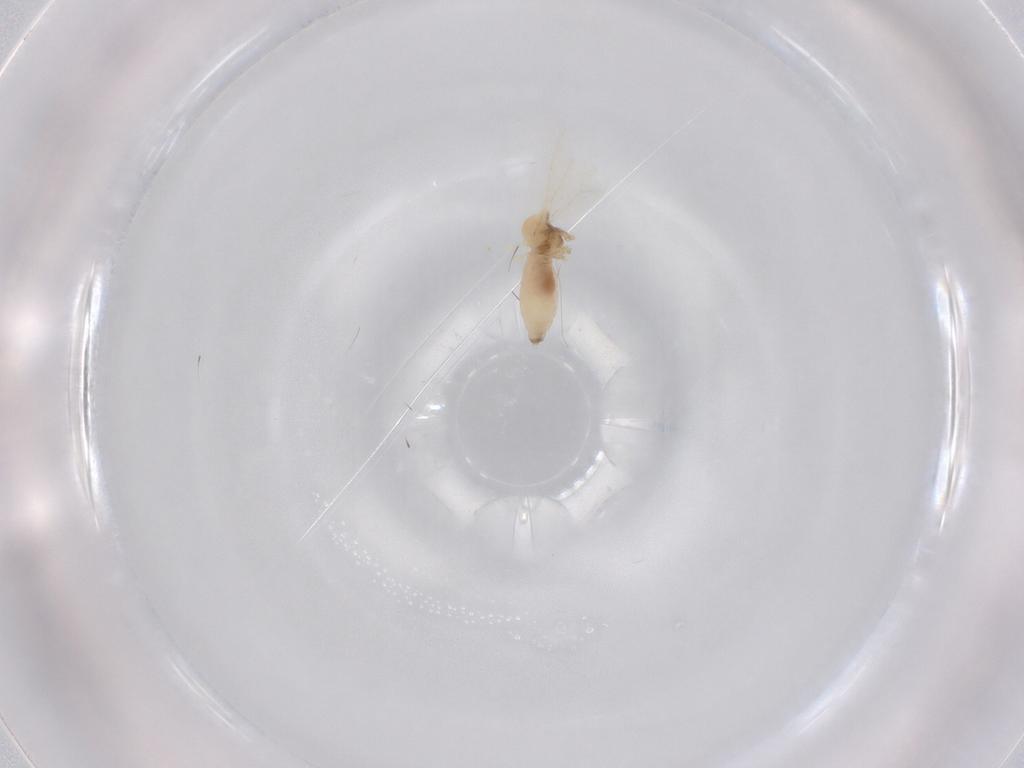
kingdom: Animalia
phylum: Arthropoda
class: Insecta
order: Diptera
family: Cecidomyiidae
